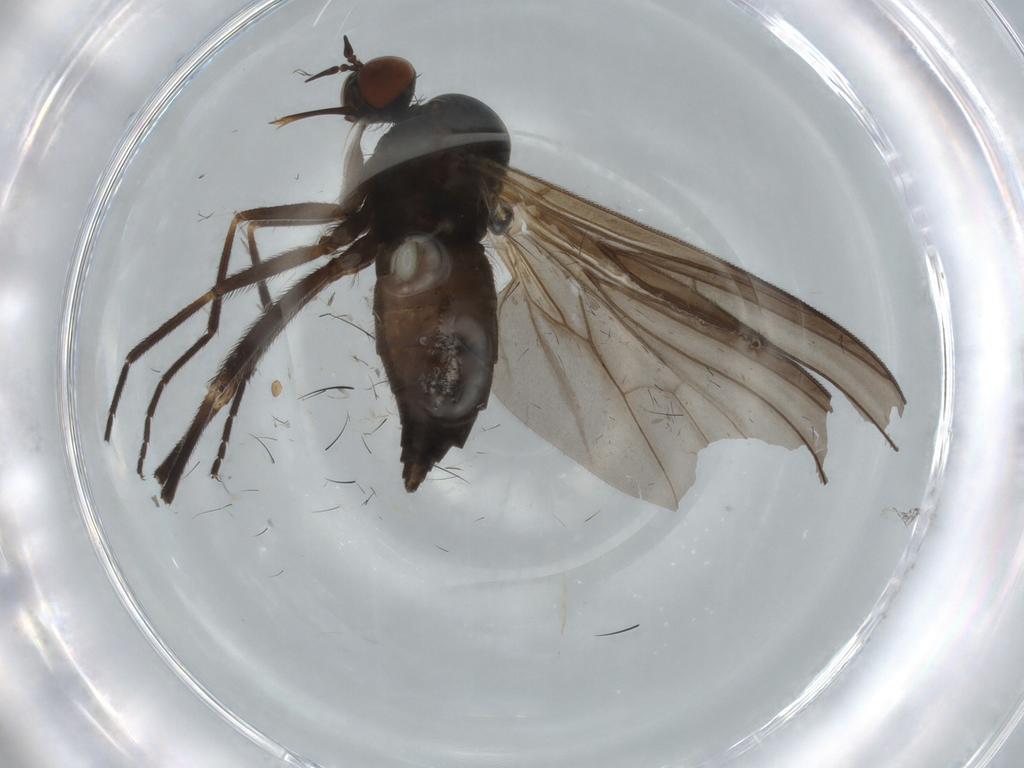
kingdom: Animalia
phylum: Arthropoda
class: Insecta
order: Diptera
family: Empididae
